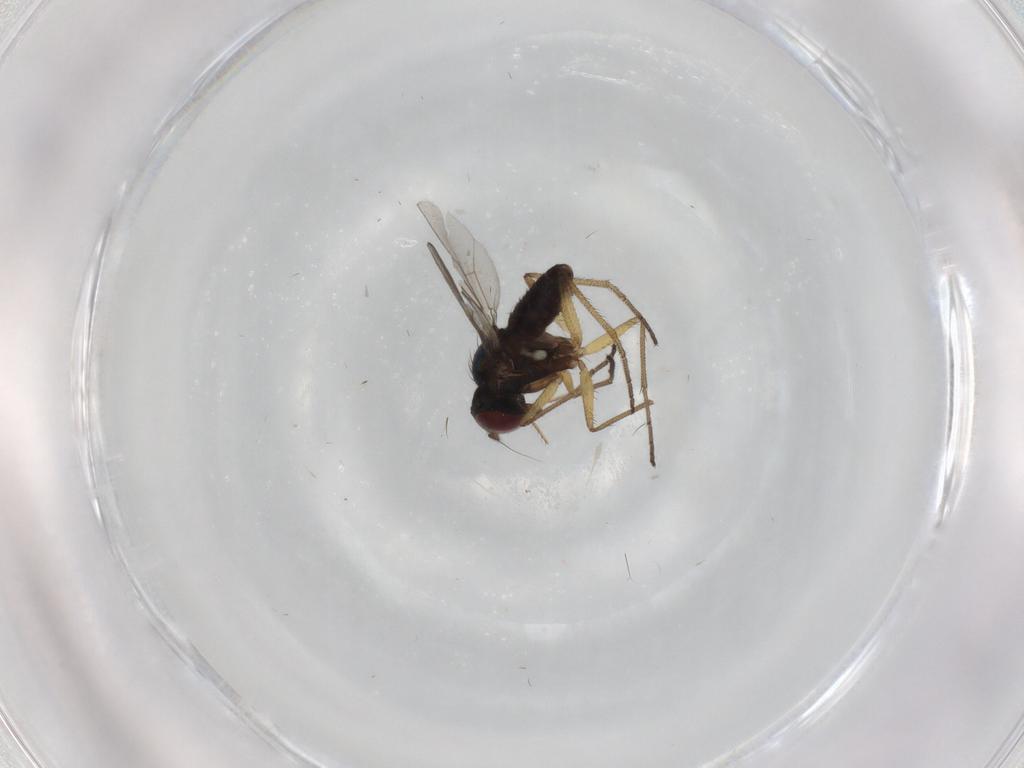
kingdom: Animalia
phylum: Arthropoda
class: Insecta
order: Diptera
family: Dolichopodidae
